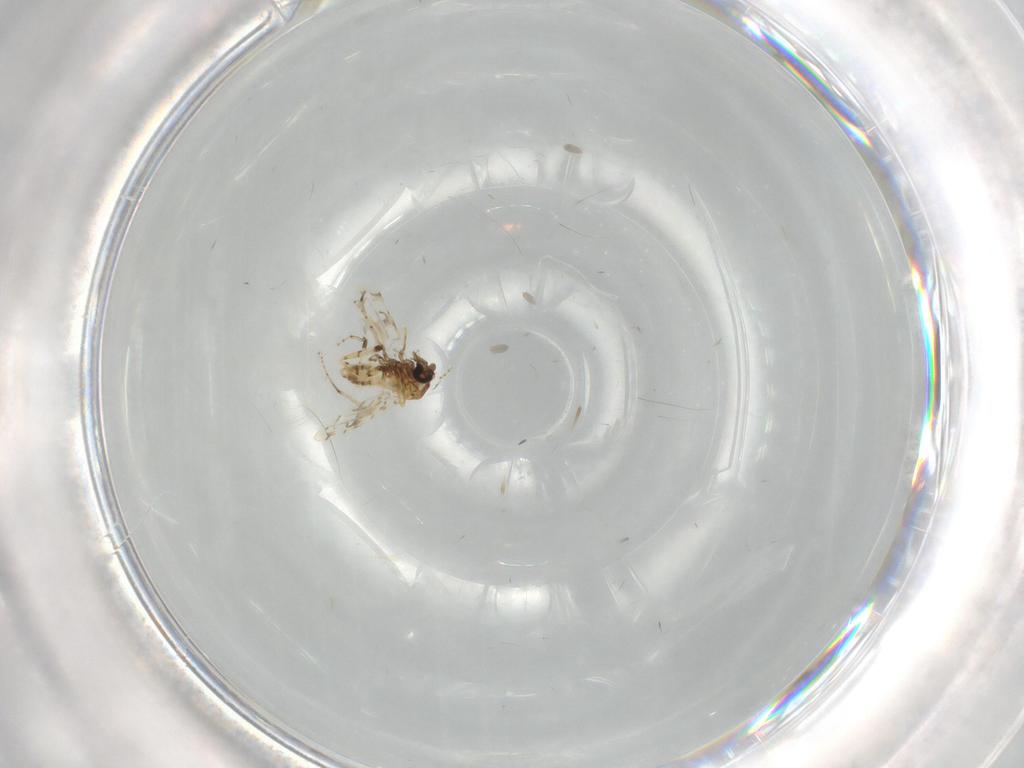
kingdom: Animalia
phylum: Arthropoda
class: Insecta
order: Diptera
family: Ceratopogonidae
